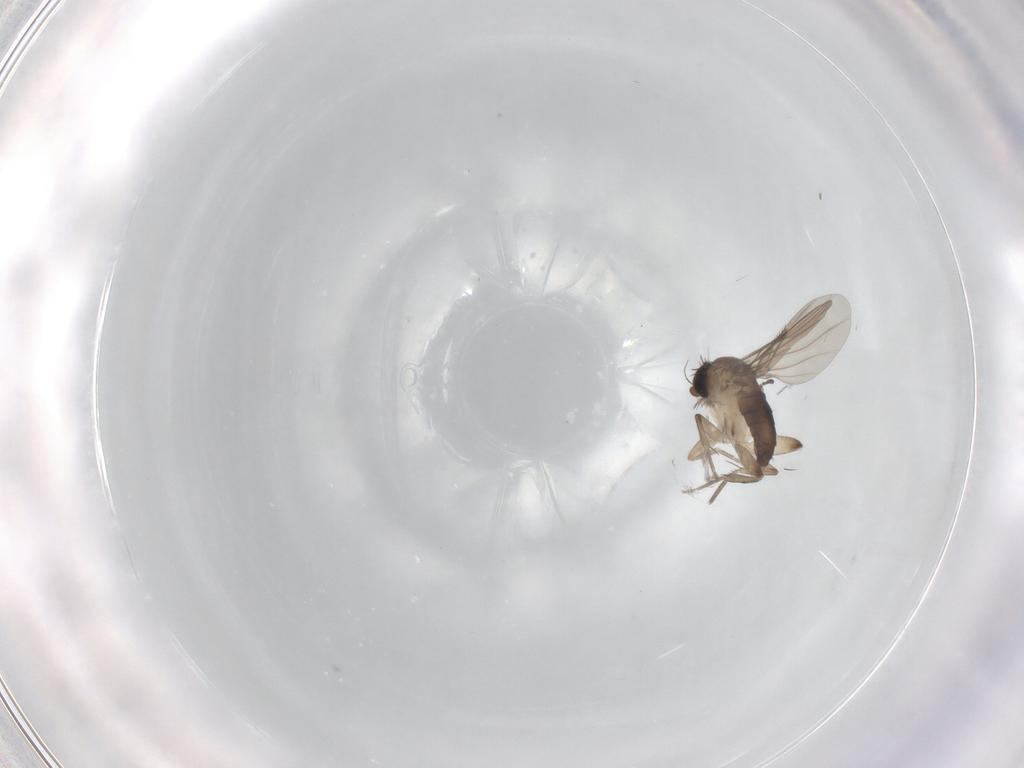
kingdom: Animalia
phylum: Arthropoda
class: Insecta
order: Diptera
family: Phoridae
